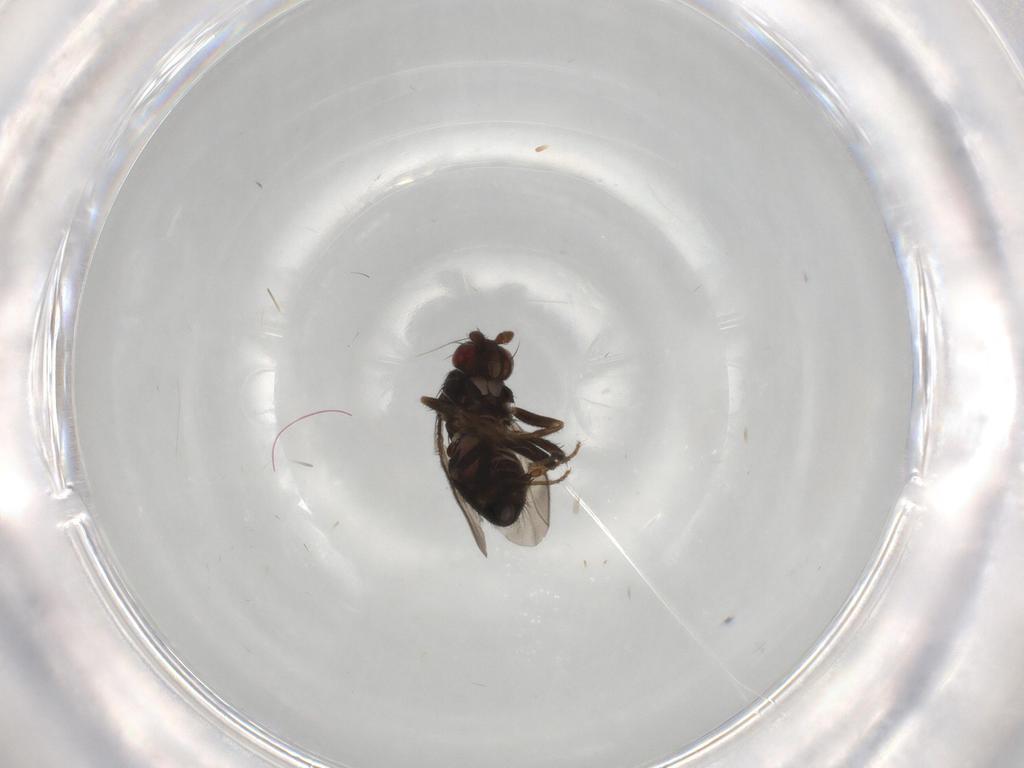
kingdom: Animalia
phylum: Arthropoda
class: Insecta
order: Diptera
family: Sphaeroceridae
